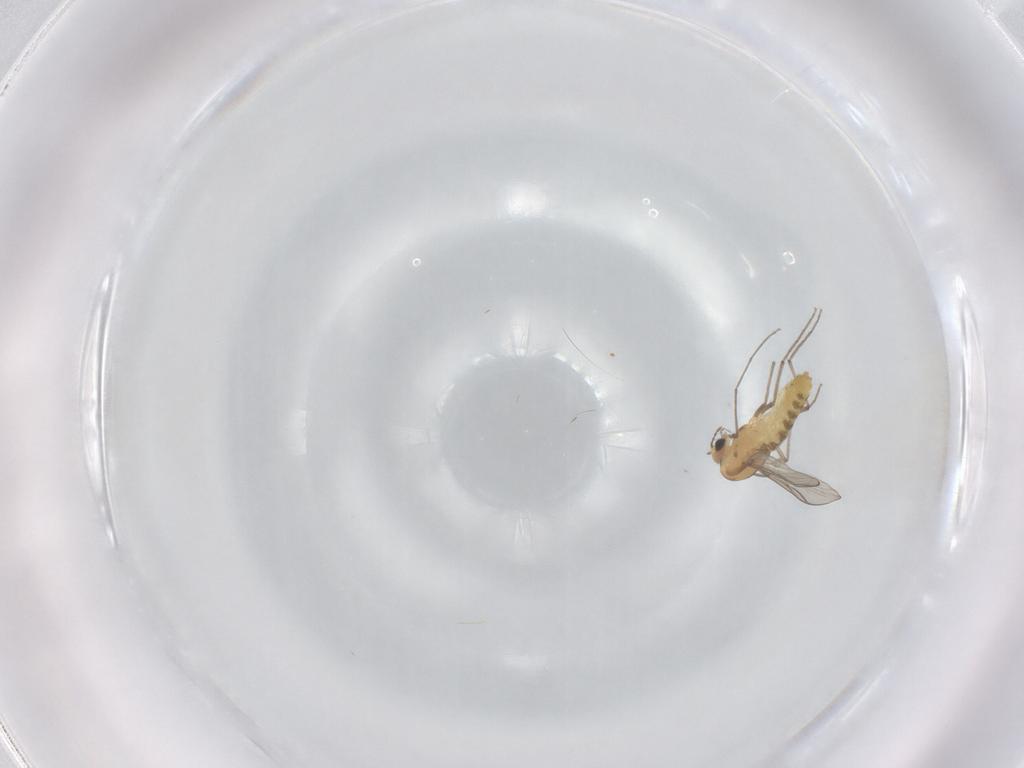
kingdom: Animalia
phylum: Arthropoda
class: Insecta
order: Diptera
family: Chironomidae
